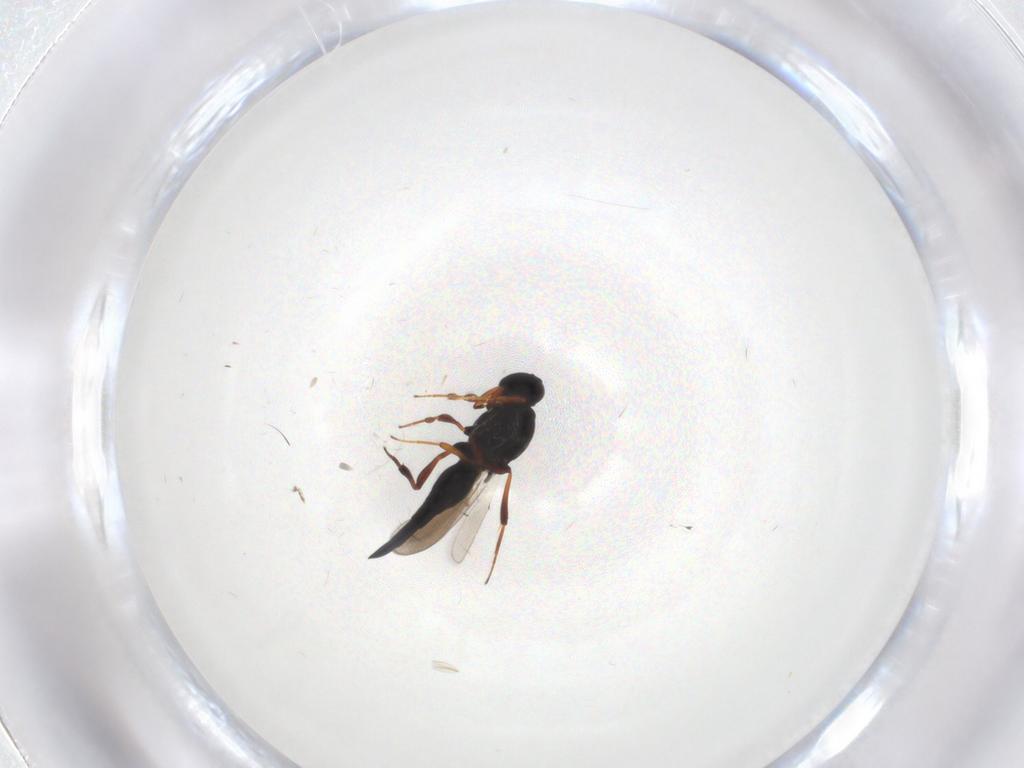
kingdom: Animalia
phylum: Arthropoda
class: Insecta
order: Hymenoptera
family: Platygastridae
